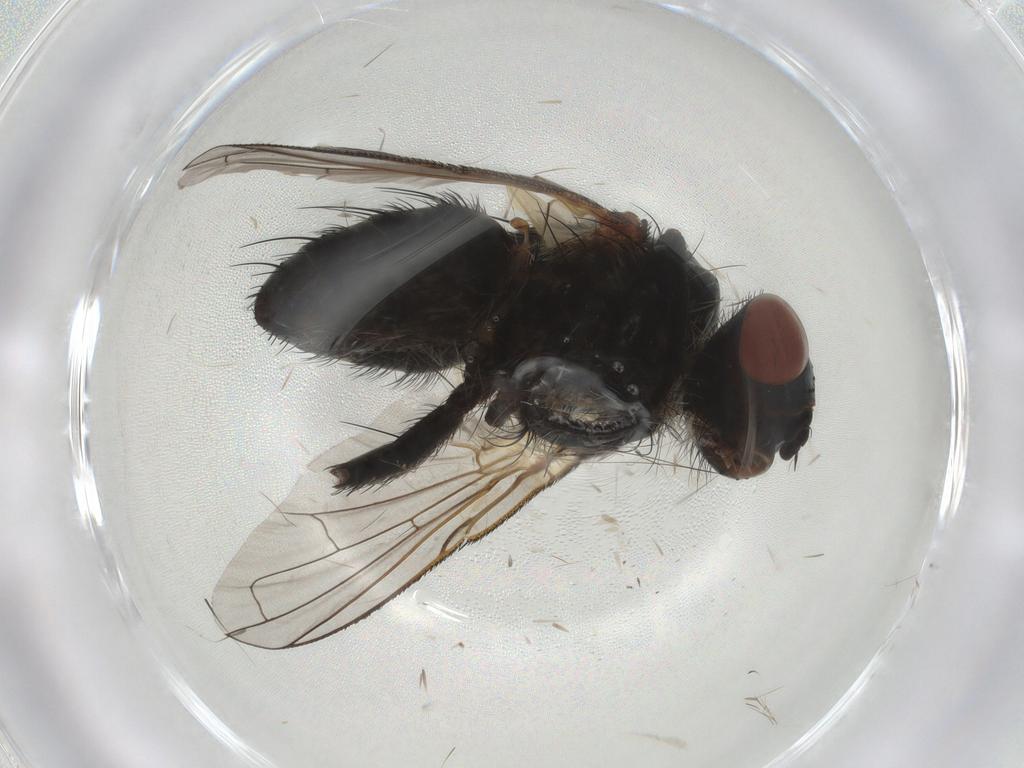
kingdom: Animalia
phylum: Arthropoda
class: Insecta
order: Diptera
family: Tachinidae
